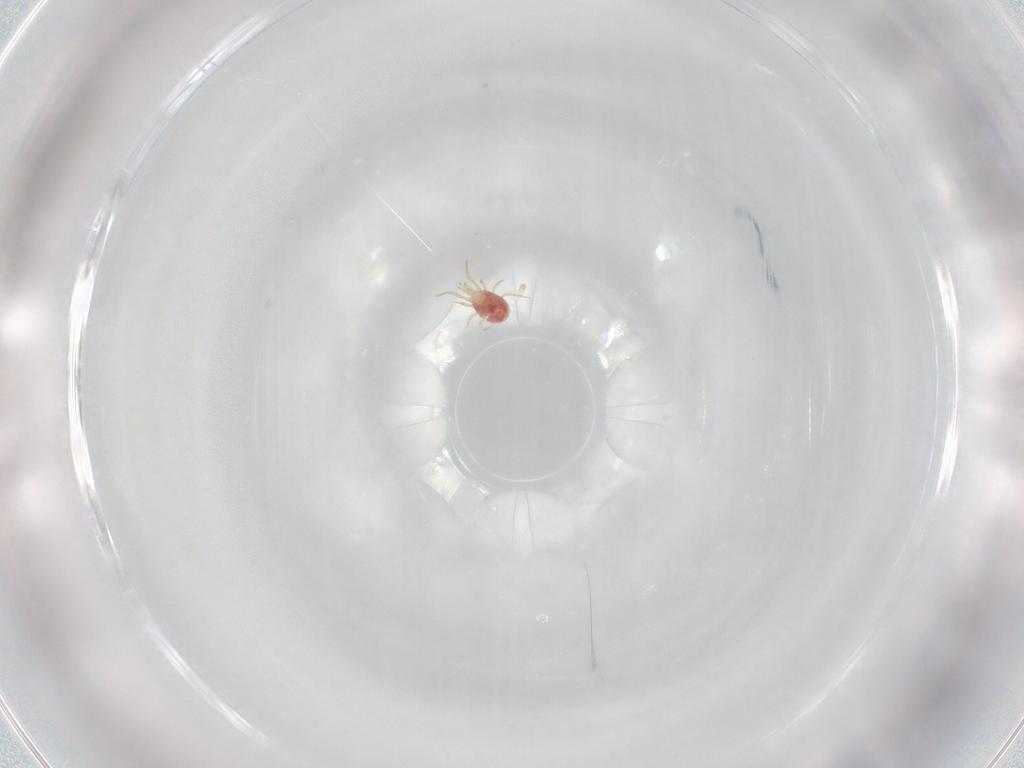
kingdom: Animalia
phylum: Arthropoda
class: Arachnida
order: Mesostigmata
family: Phytoseiidae
